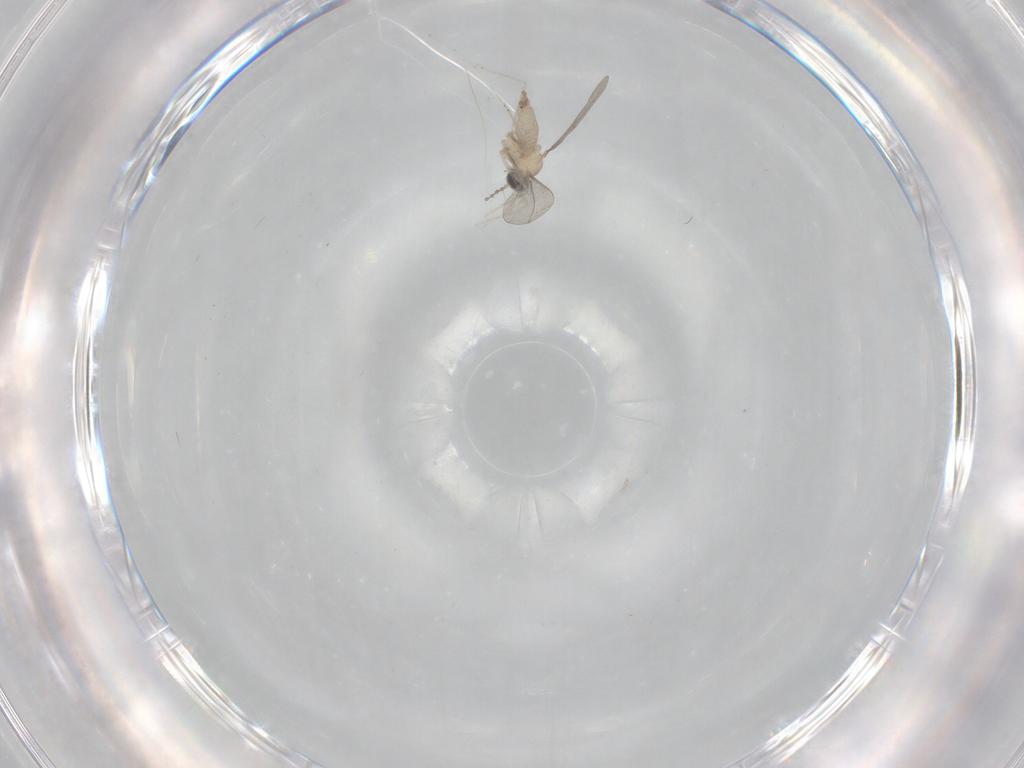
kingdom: Animalia
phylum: Arthropoda
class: Insecta
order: Diptera
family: Cecidomyiidae
